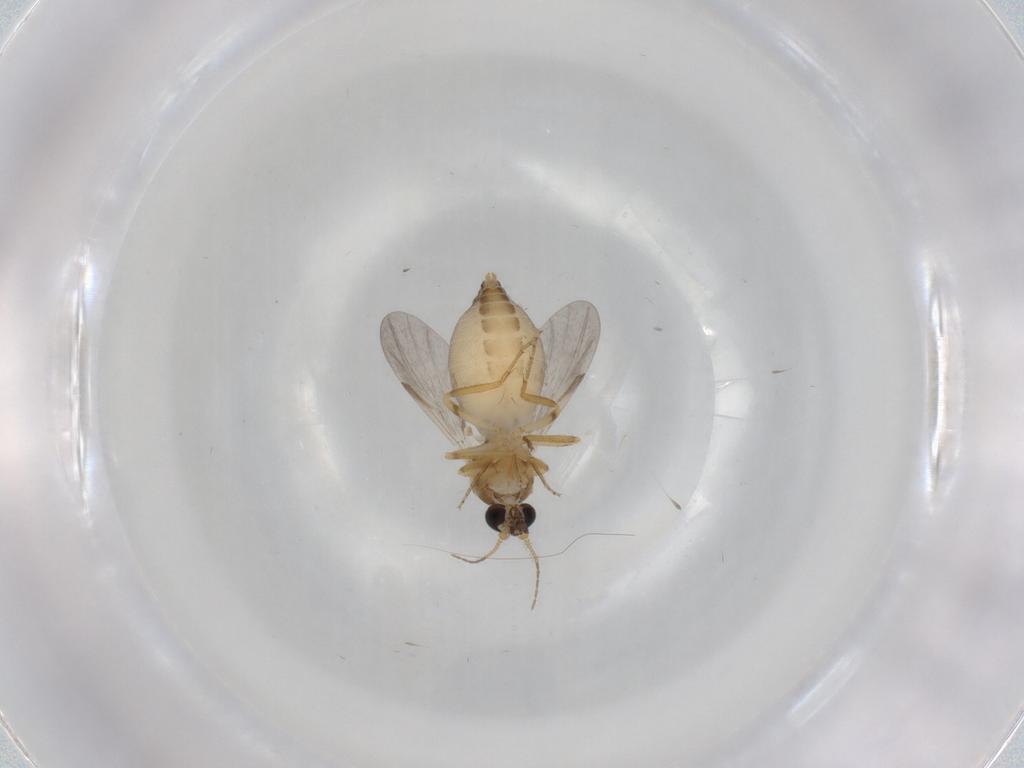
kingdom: Animalia
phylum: Arthropoda
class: Insecta
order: Diptera
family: Ceratopogonidae
